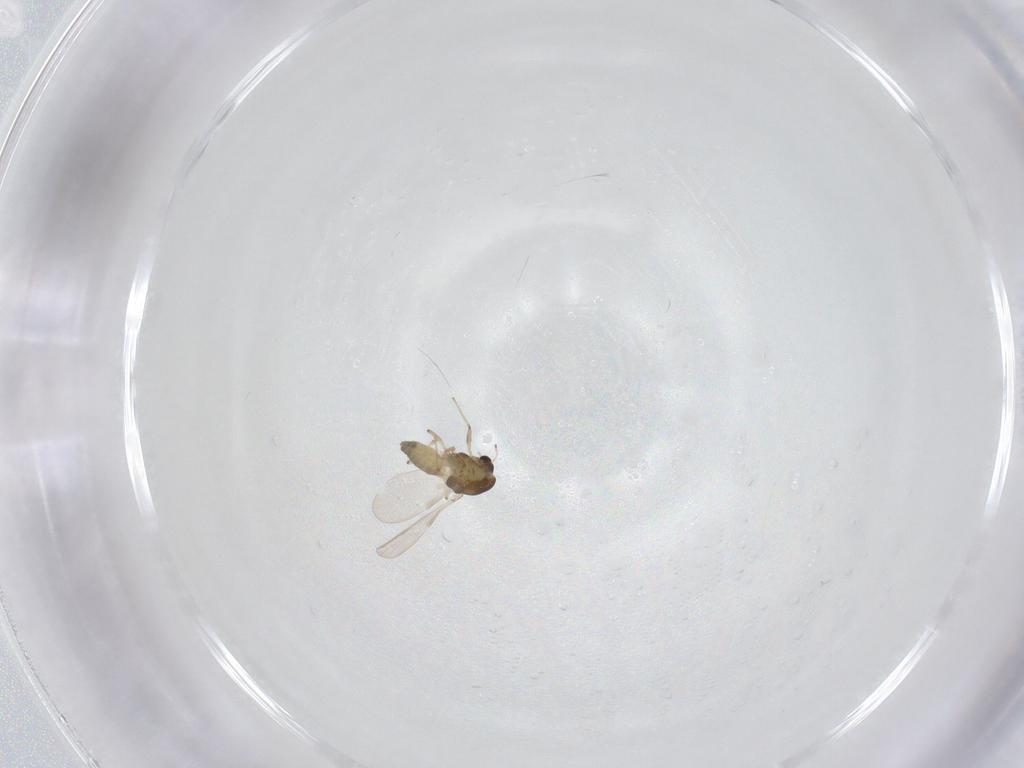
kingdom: Animalia
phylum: Arthropoda
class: Insecta
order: Diptera
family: Chironomidae
